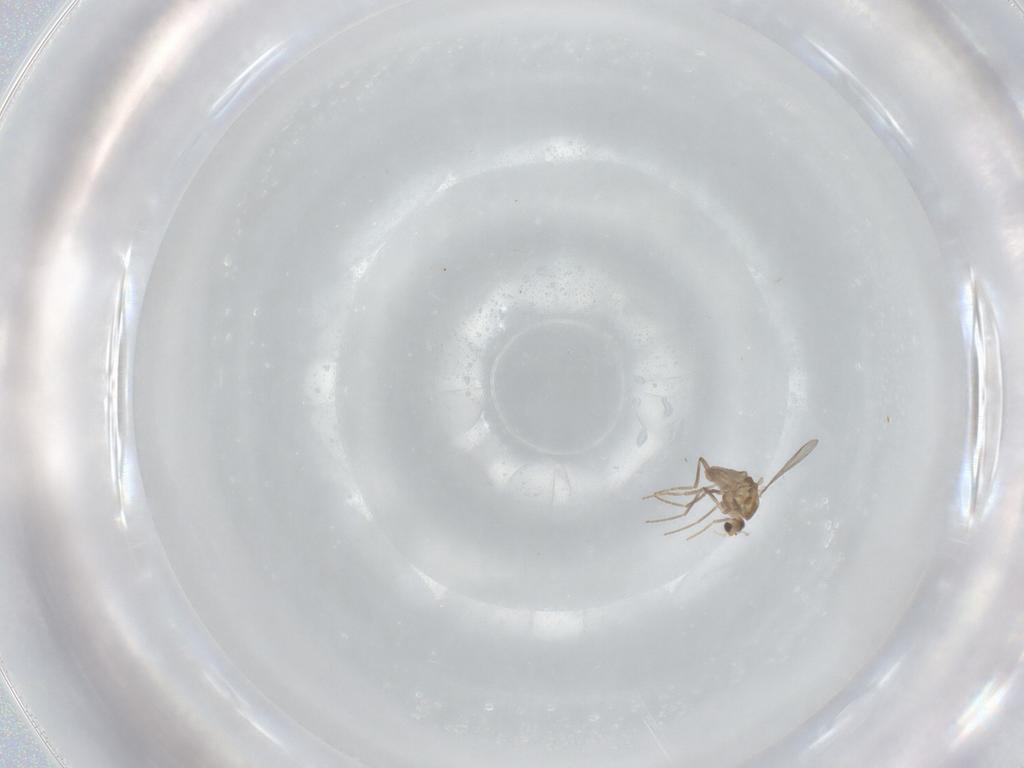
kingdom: Animalia
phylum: Arthropoda
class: Insecta
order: Diptera
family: Chironomidae
